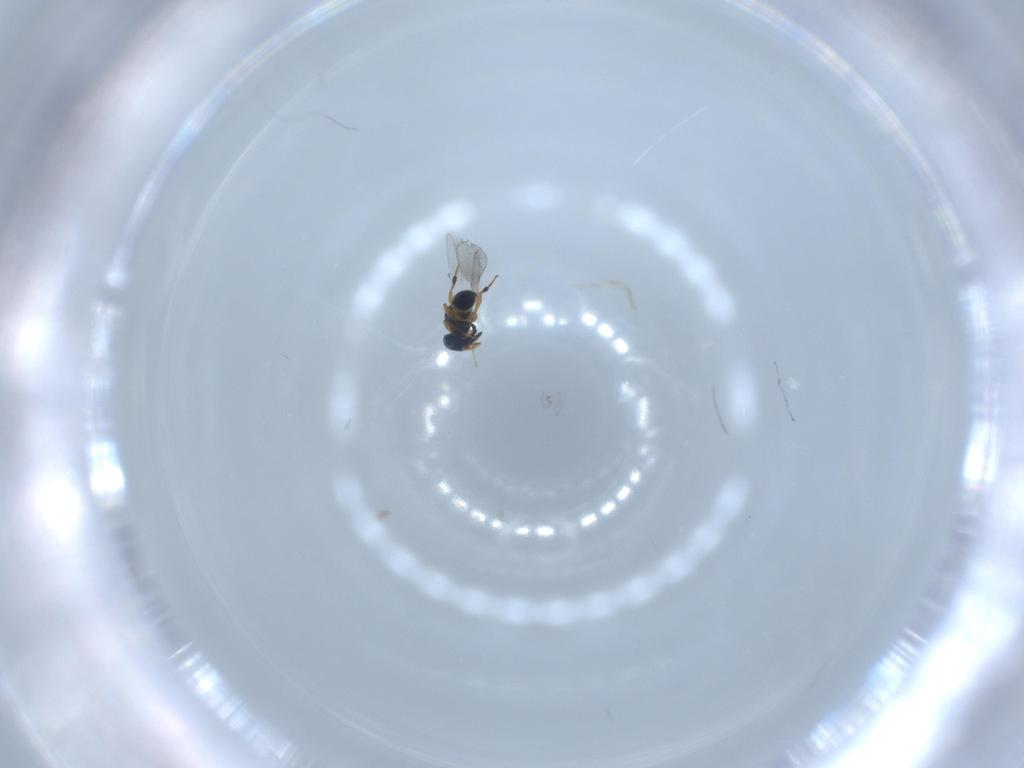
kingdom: Animalia
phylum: Arthropoda
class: Insecta
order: Hymenoptera
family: Platygastridae
